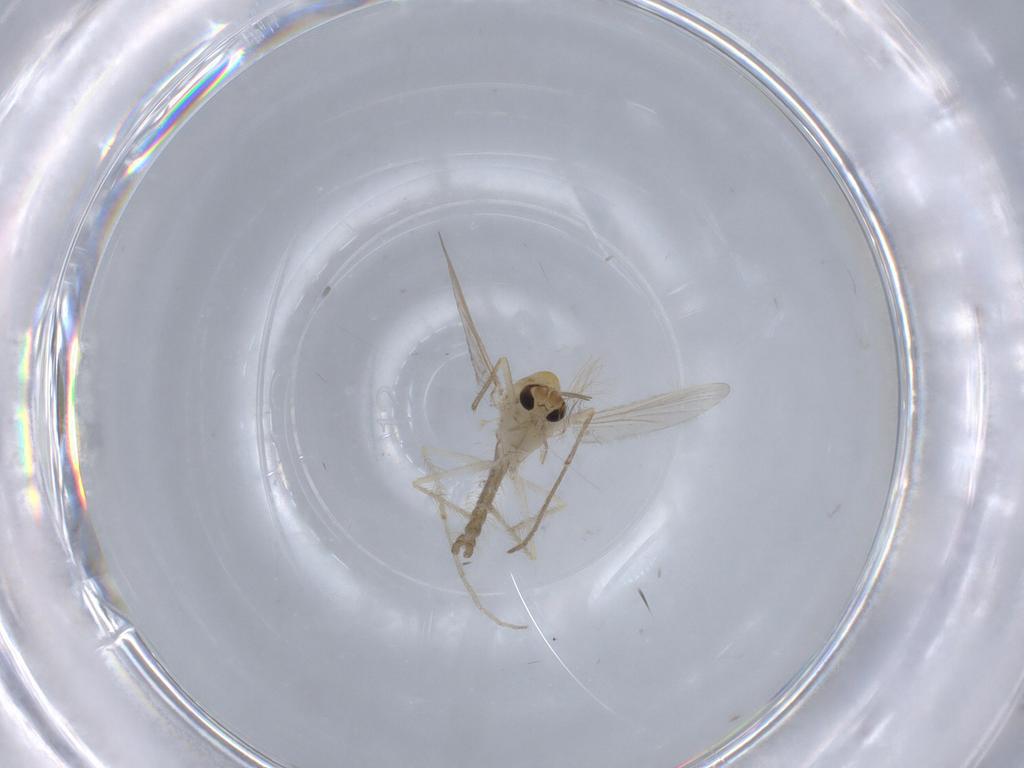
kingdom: Animalia
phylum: Arthropoda
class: Insecta
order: Diptera
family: Chironomidae
